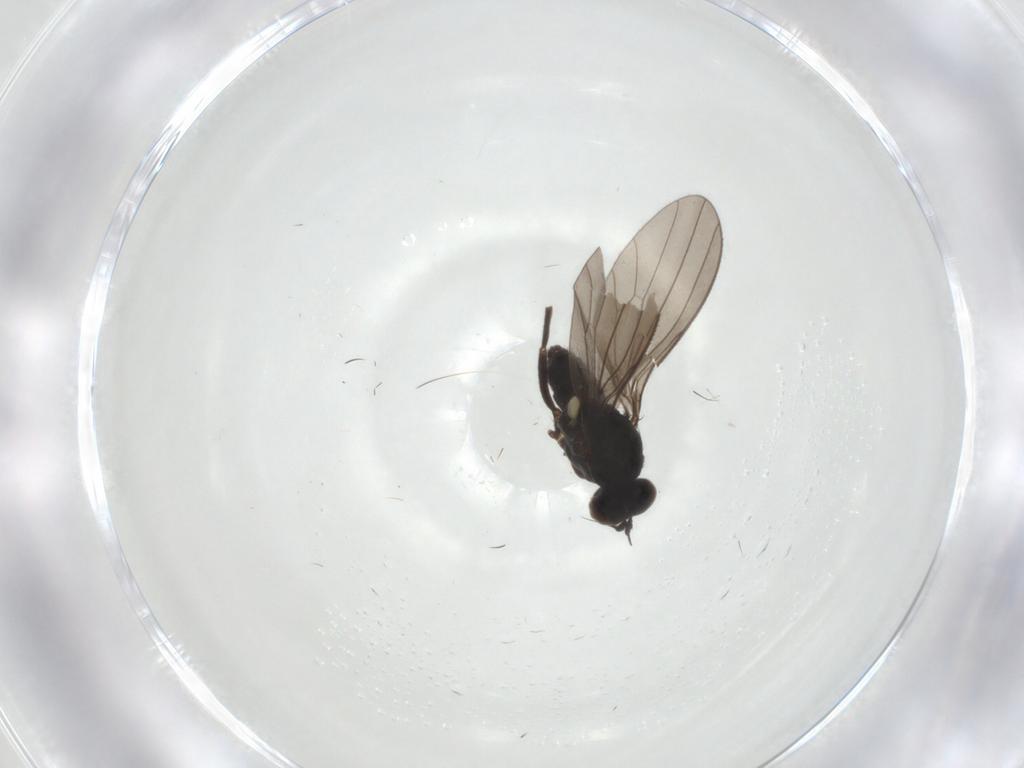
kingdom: Animalia
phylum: Arthropoda
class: Insecta
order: Diptera
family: Dolichopodidae
